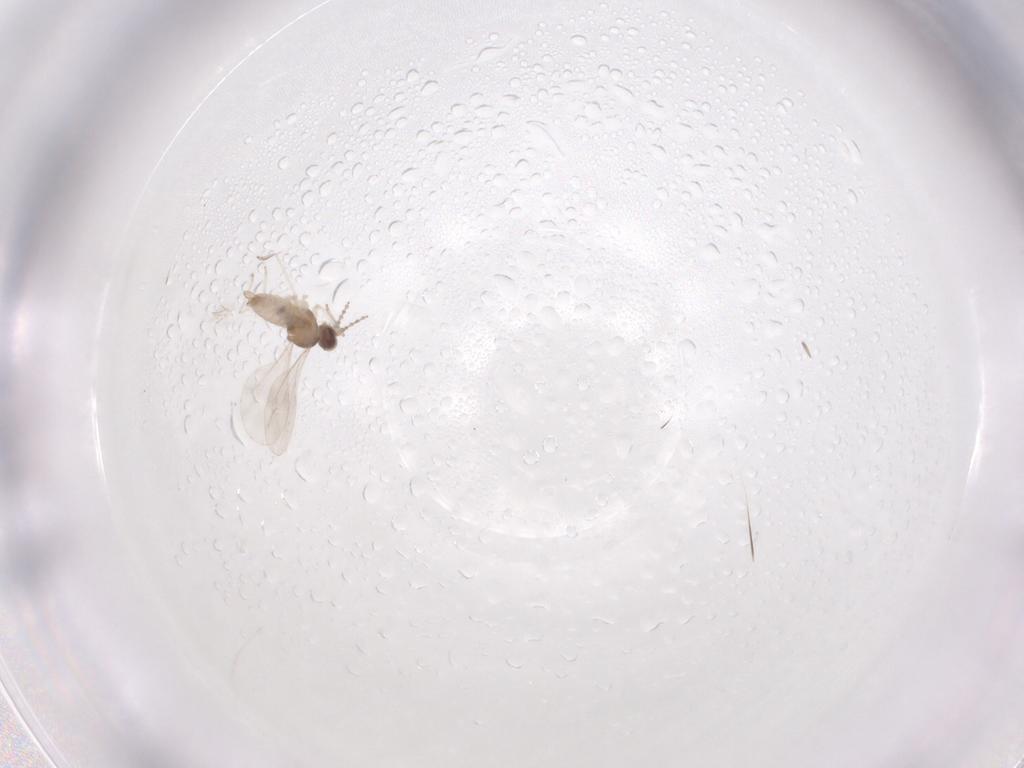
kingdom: Animalia
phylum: Arthropoda
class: Insecta
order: Diptera
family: Cecidomyiidae
